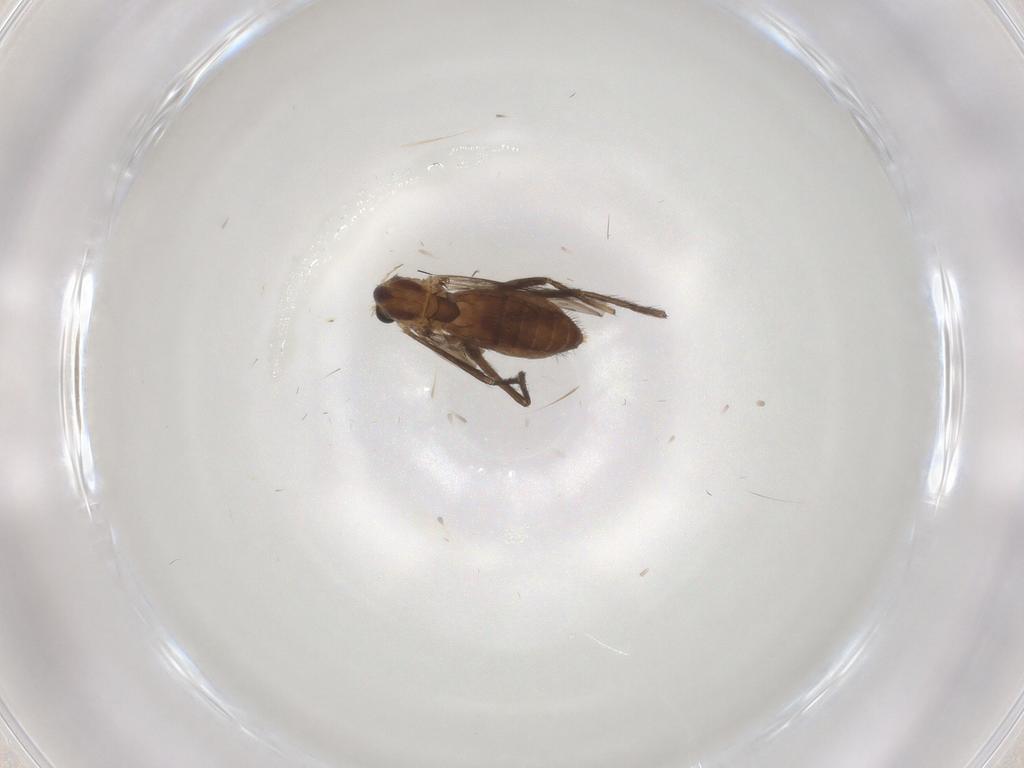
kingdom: Animalia
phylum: Arthropoda
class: Insecta
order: Diptera
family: Chironomidae
